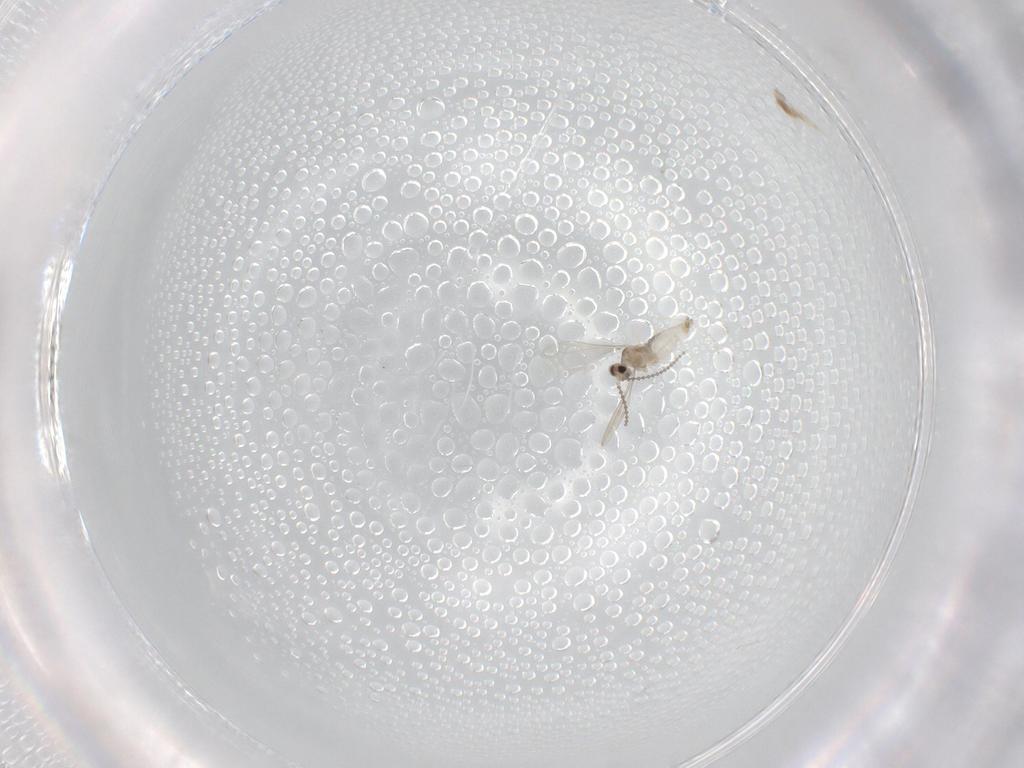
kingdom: Animalia
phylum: Arthropoda
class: Insecta
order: Diptera
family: Cecidomyiidae
